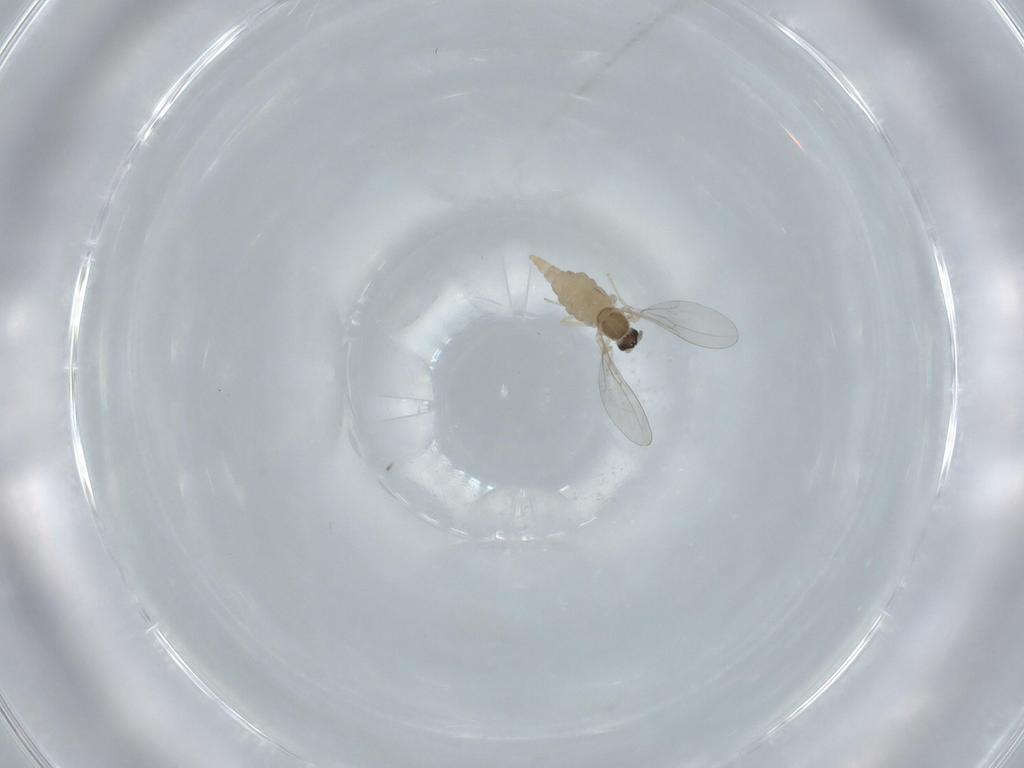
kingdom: Animalia
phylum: Arthropoda
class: Insecta
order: Diptera
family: Cecidomyiidae
